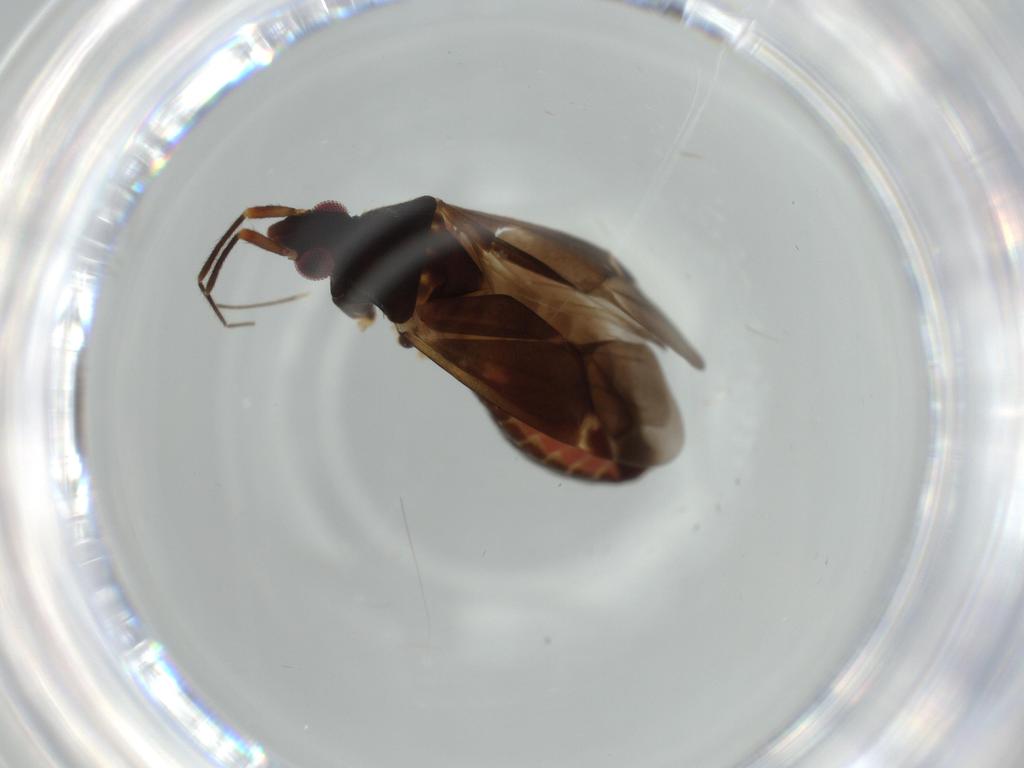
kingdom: Animalia
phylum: Arthropoda
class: Insecta
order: Hemiptera
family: Miridae
